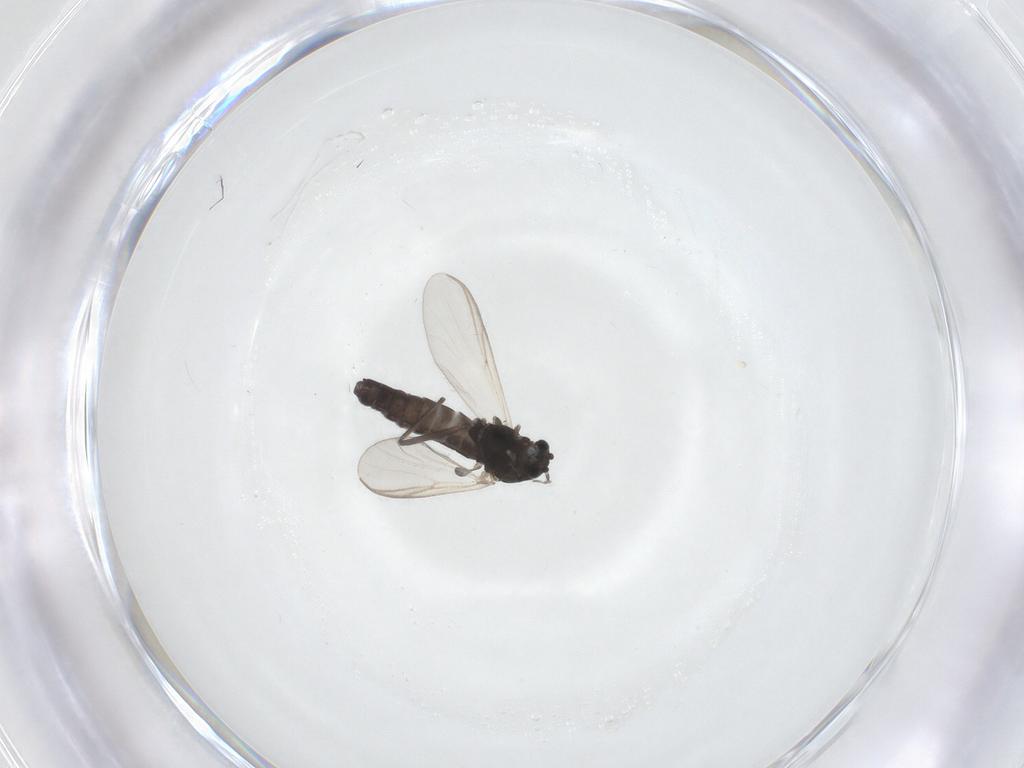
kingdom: Animalia
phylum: Arthropoda
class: Insecta
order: Diptera
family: Chironomidae
